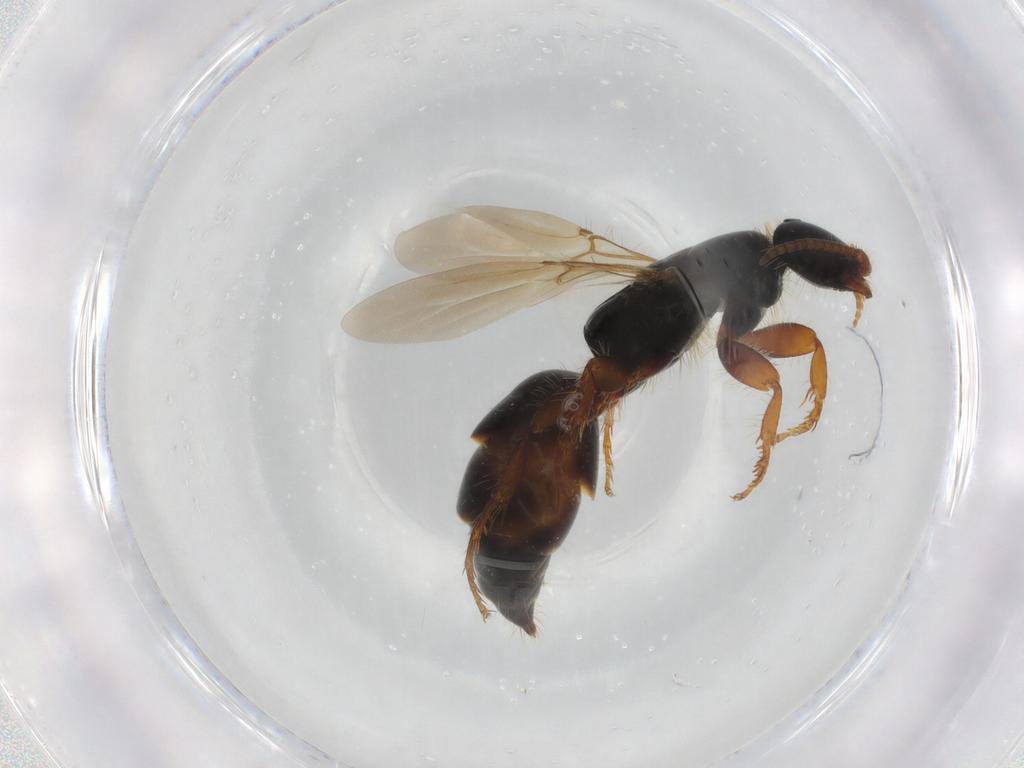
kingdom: Animalia
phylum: Arthropoda
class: Insecta
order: Hymenoptera
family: Bethylidae
